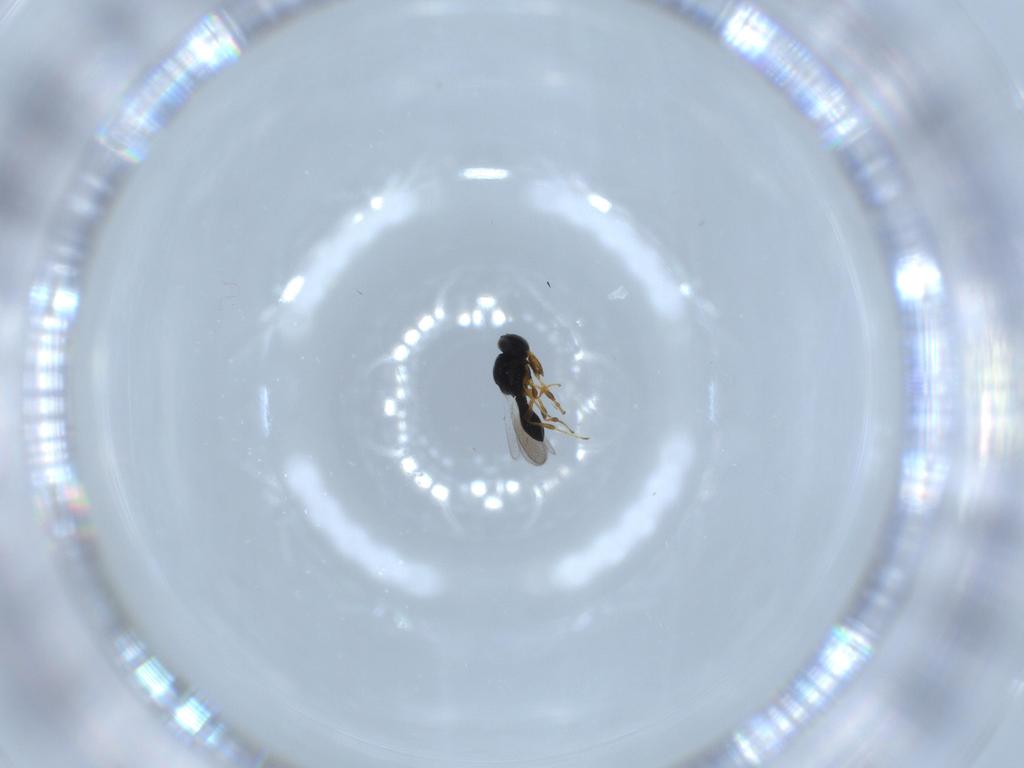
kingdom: Animalia
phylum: Arthropoda
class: Insecta
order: Hymenoptera
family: Platygastridae
